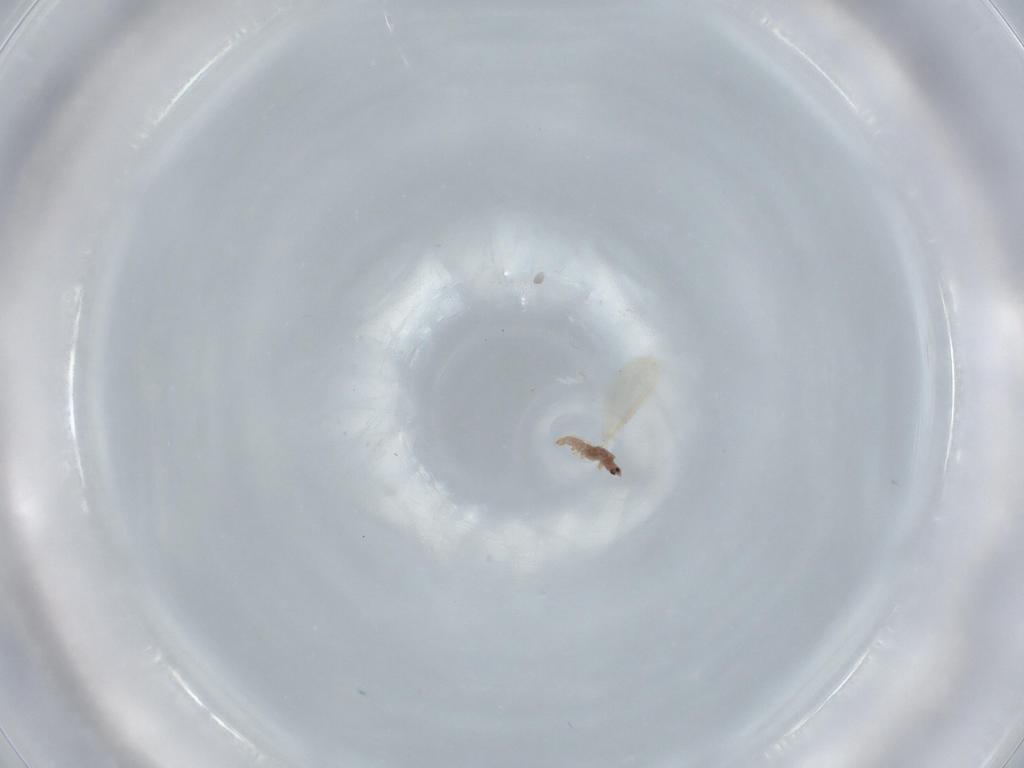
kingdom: Animalia
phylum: Arthropoda
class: Insecta
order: Hemiptera
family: Diaspididae
